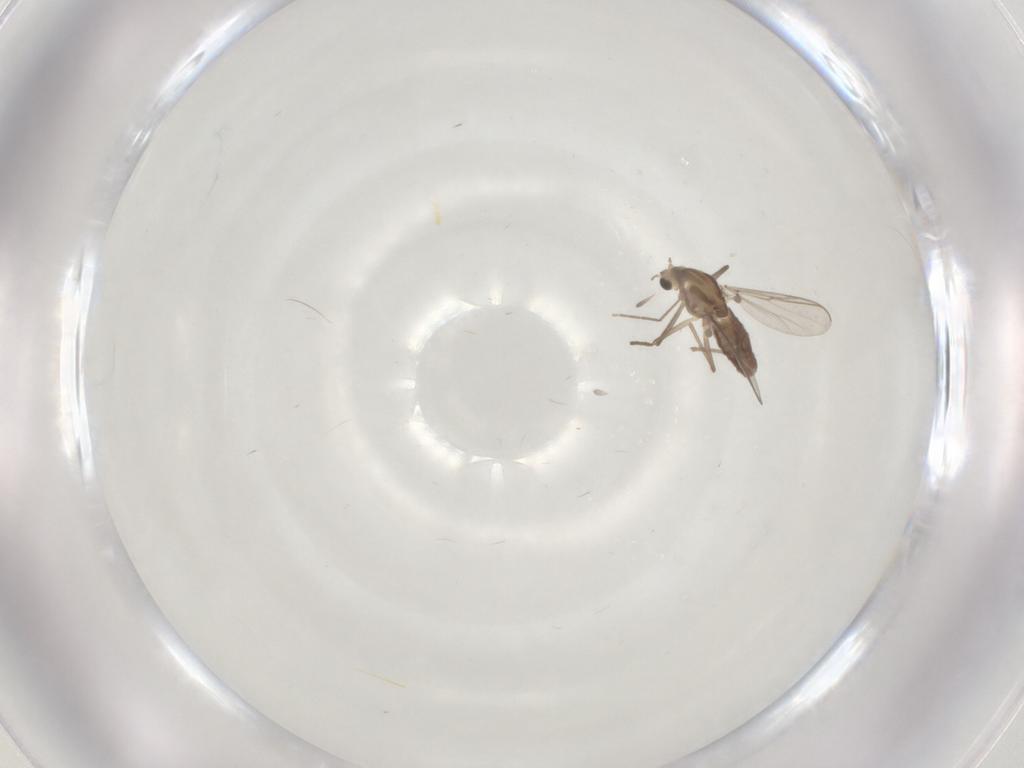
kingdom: Animalia
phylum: Arthropoda
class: Insecta
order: Diptera
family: Chironomidae
